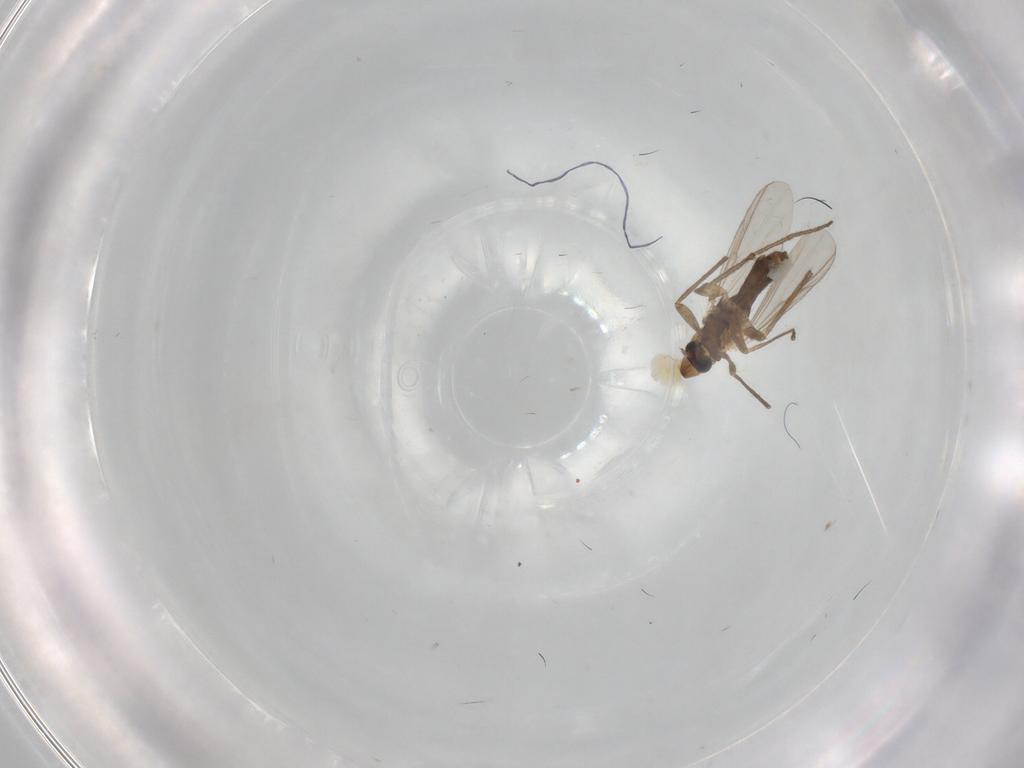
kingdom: Animalia
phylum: Arthropoda
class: Insecta
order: Diptera
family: Chironomidae
